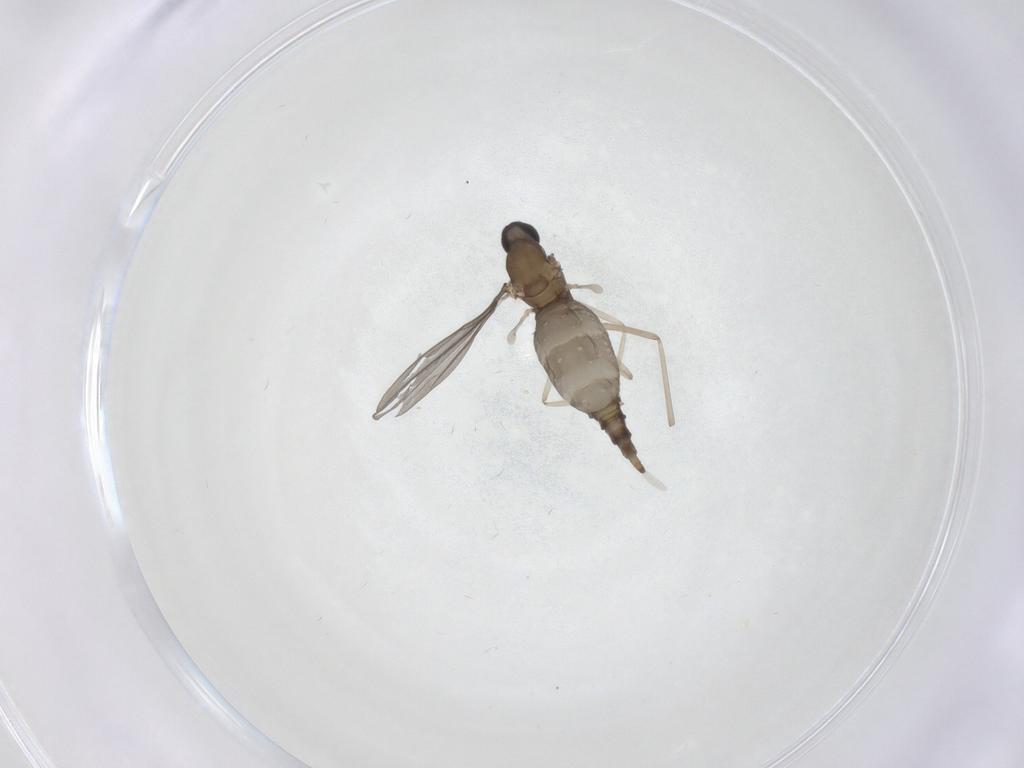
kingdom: Animalia
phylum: Arthropoda
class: Insecta
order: Diptera
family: Cecidomyiidae
